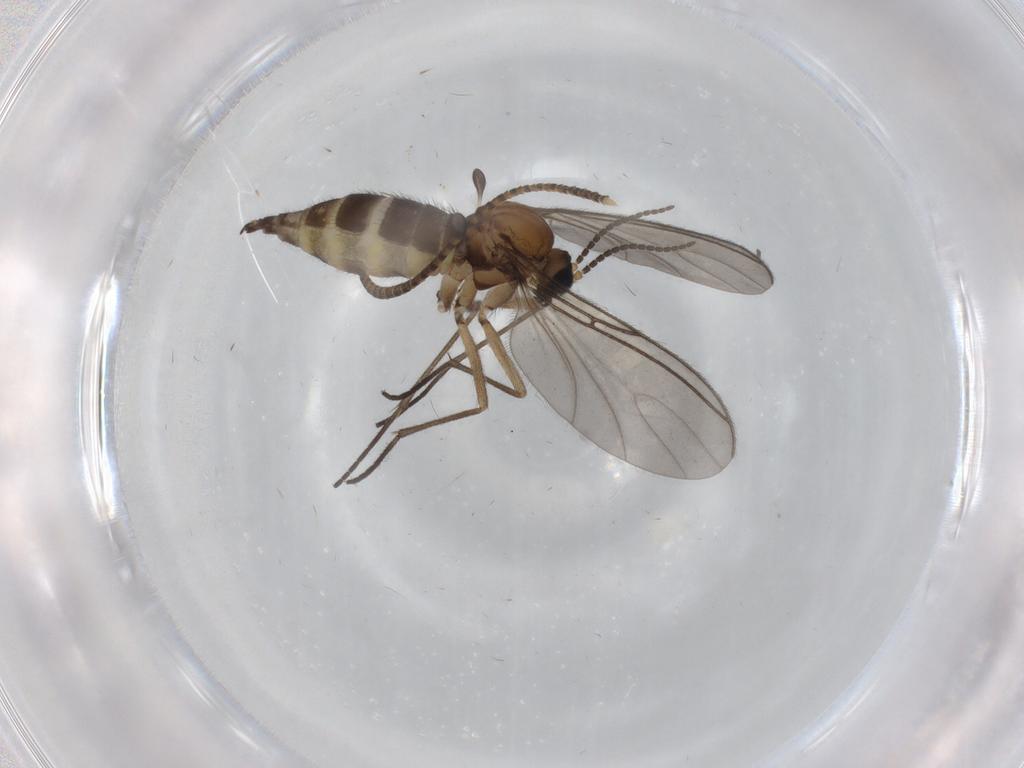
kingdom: Animalia
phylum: Arthropoda
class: Insecta
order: Diptera
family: Sciaridae
